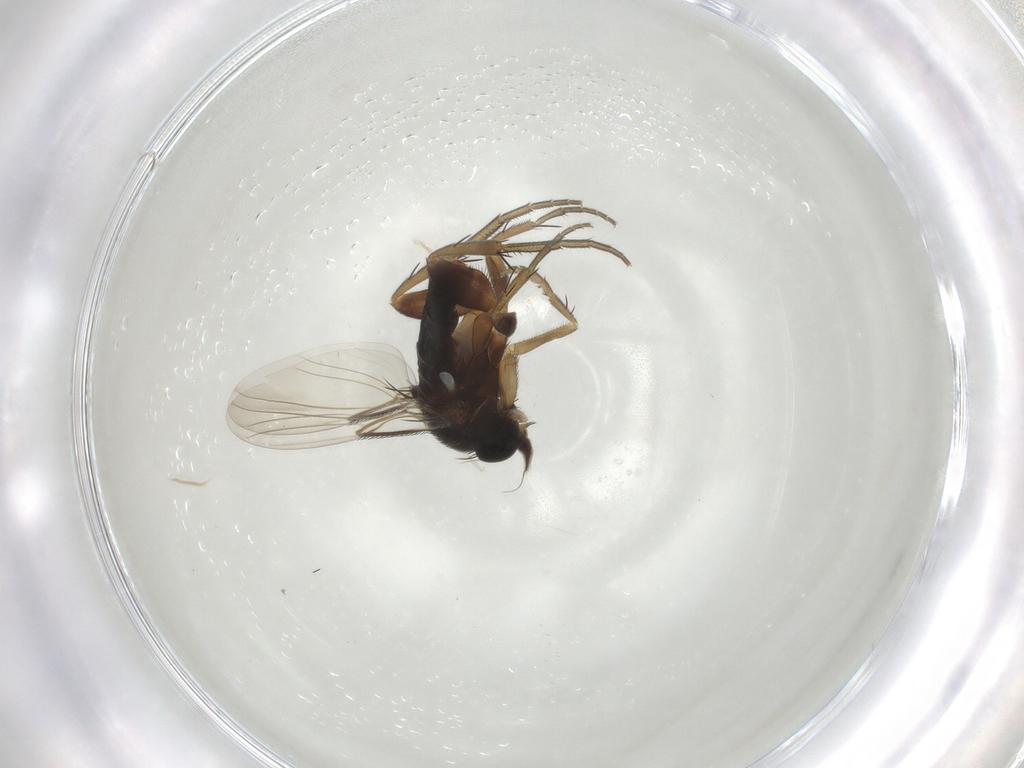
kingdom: Animalia
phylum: Arthropoda
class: Insecta
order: Diptera
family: Phoridae
